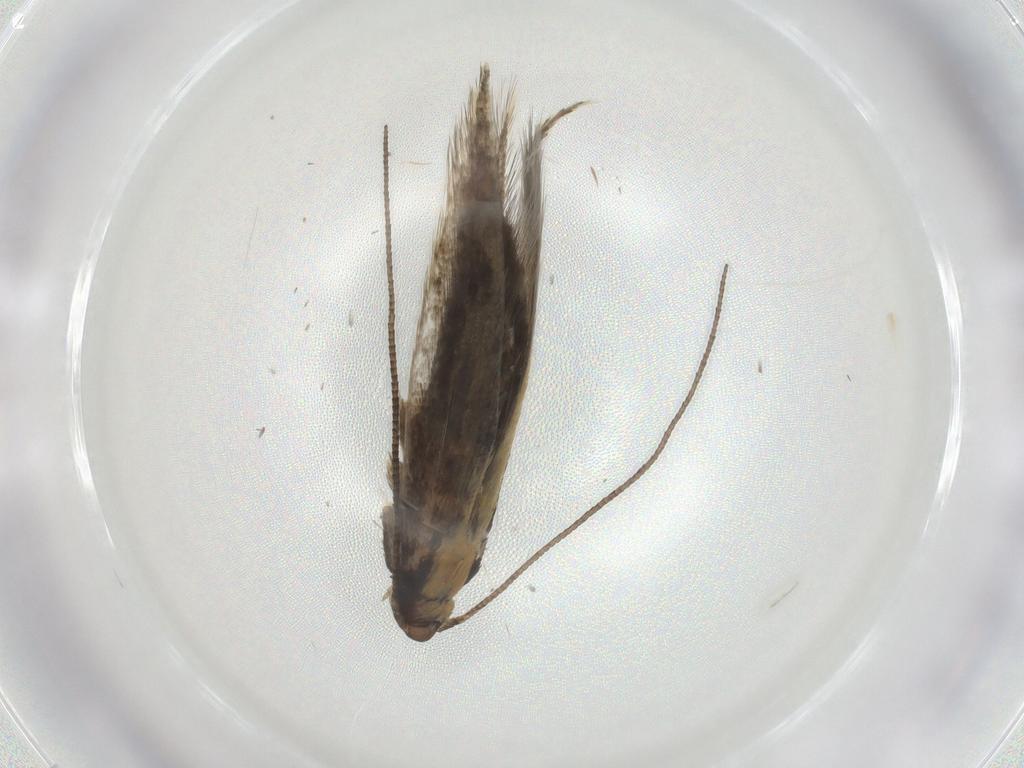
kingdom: Animalia
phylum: Arthropoda
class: Insecta
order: Lepidoptera
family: Tineidae
